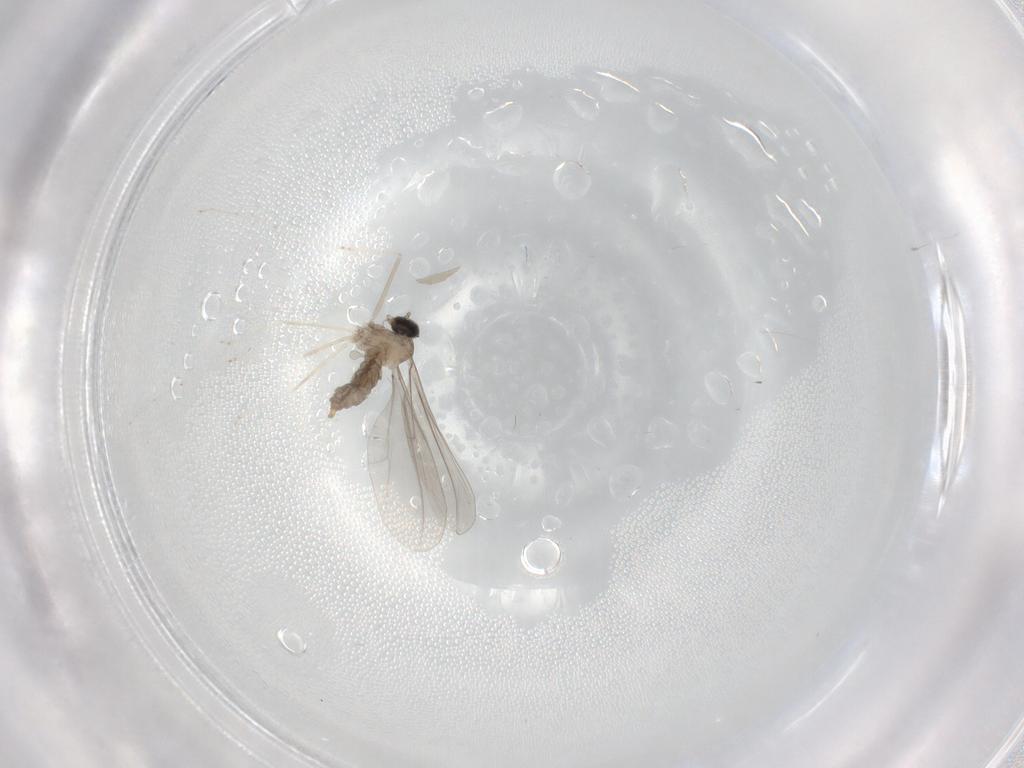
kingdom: Animalia
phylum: Arthropoda
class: Insecta
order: Diptera
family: Cecidomyiidae
